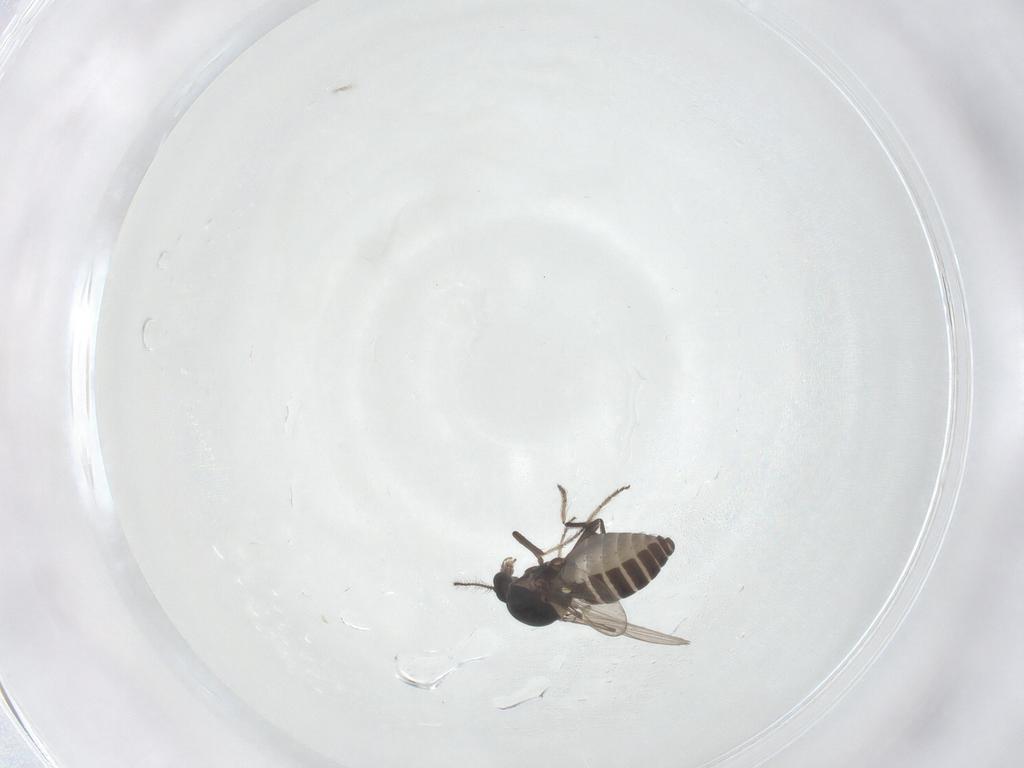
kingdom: Animalia
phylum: Arthropoda
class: Insecta
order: Diptera
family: Ceratopogonidae
